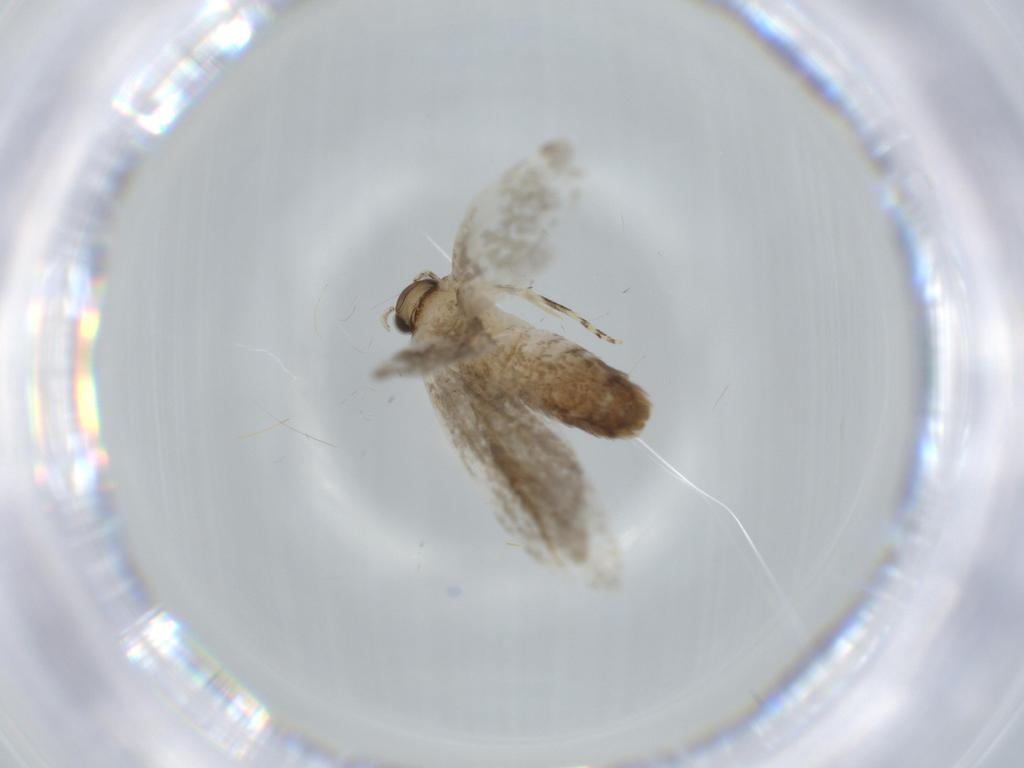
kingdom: Animalia
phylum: Arthropoda
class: Insecta
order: Lepidoptera
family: Tineidae
